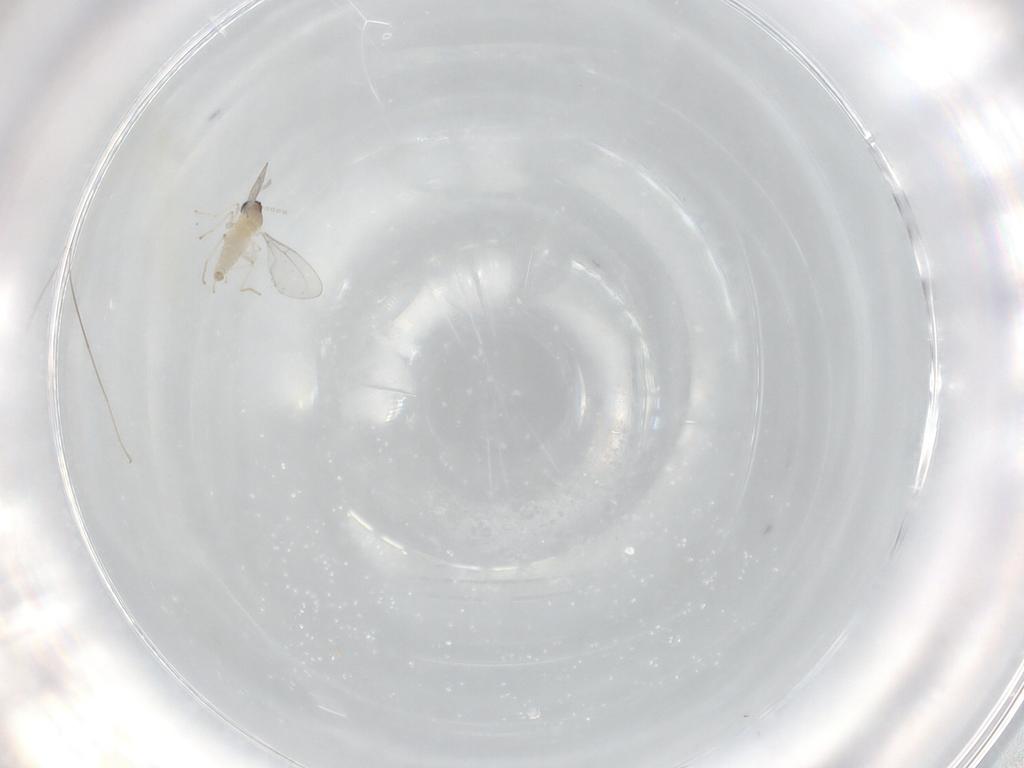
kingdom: Animalia
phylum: Arthropoda
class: Insecta
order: Diptera
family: Cecidomyiidae
